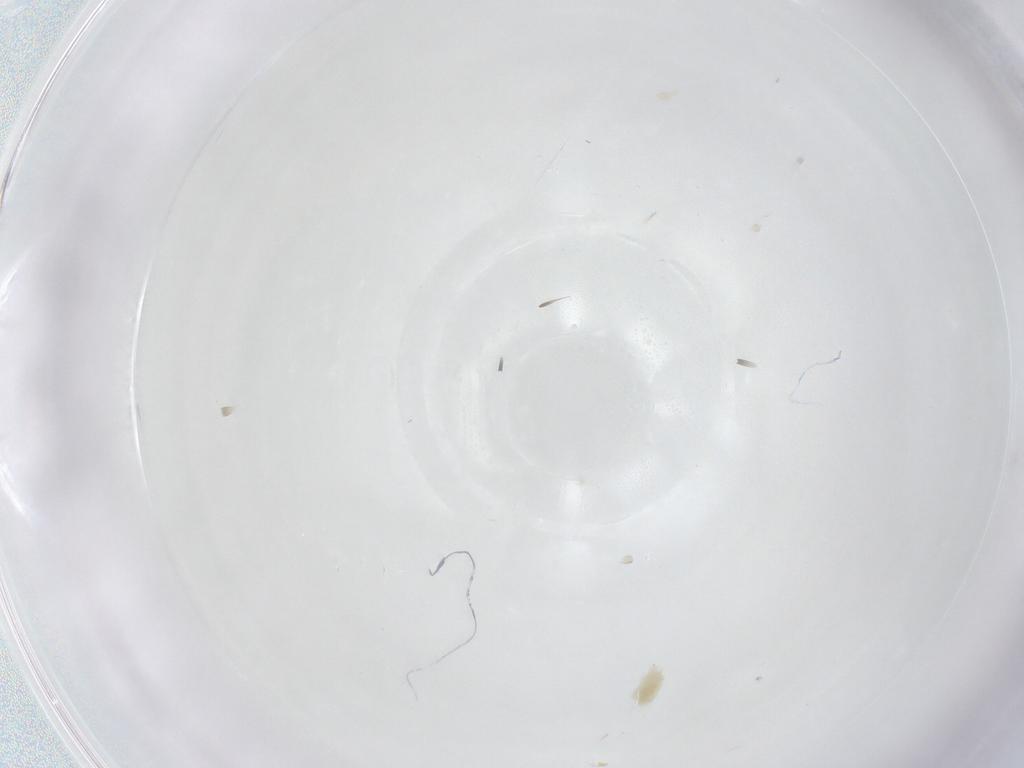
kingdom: Animalia
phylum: Arthropoda
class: Arachnida
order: Trombidiformes
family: Eupodidae
